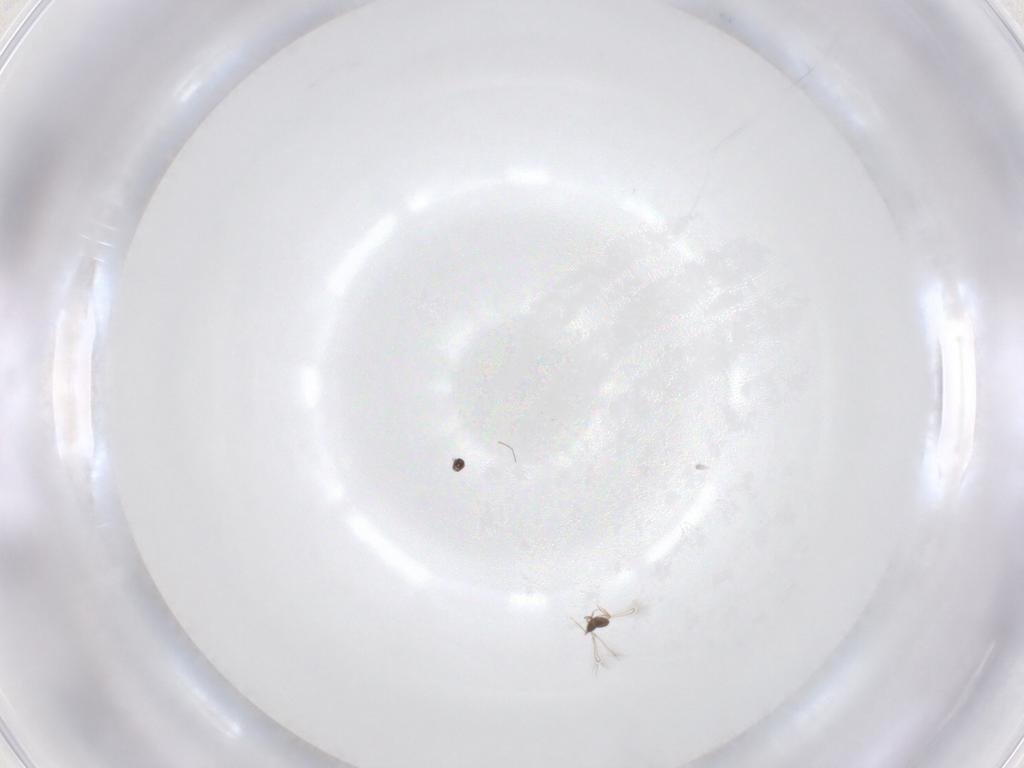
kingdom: Animalia
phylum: Arthropoda
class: Insecta
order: Hymenoptera
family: Mymaridae
